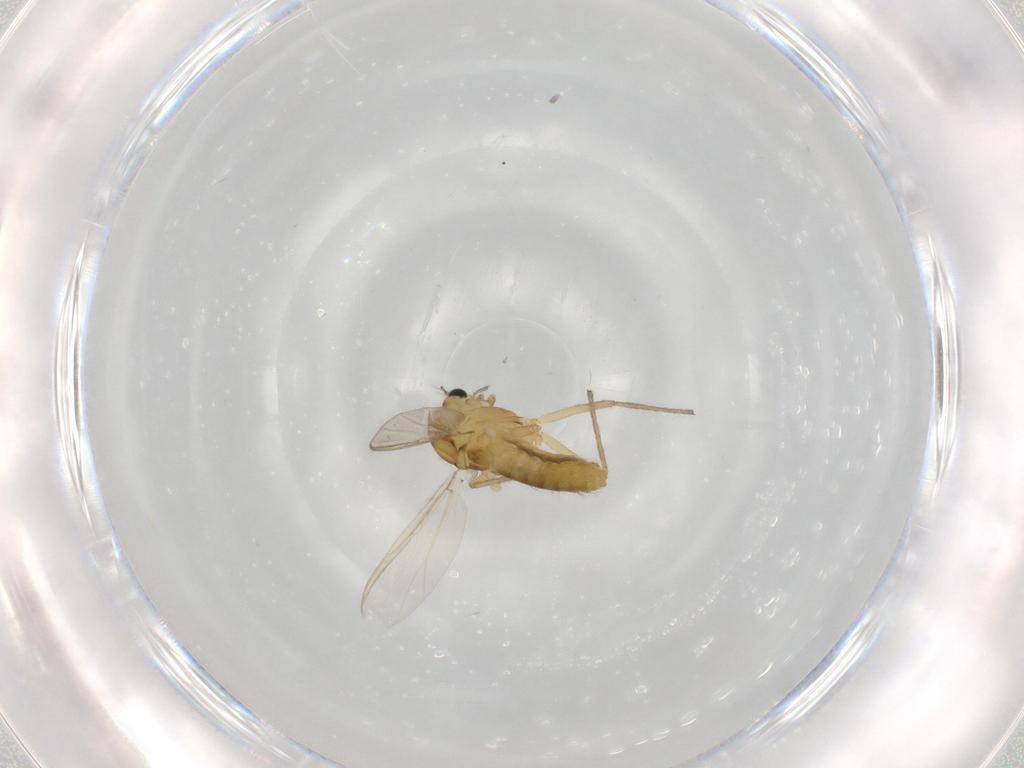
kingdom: Animalia
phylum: Arthropoda
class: Insecta
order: Diptera
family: Chironomidae
